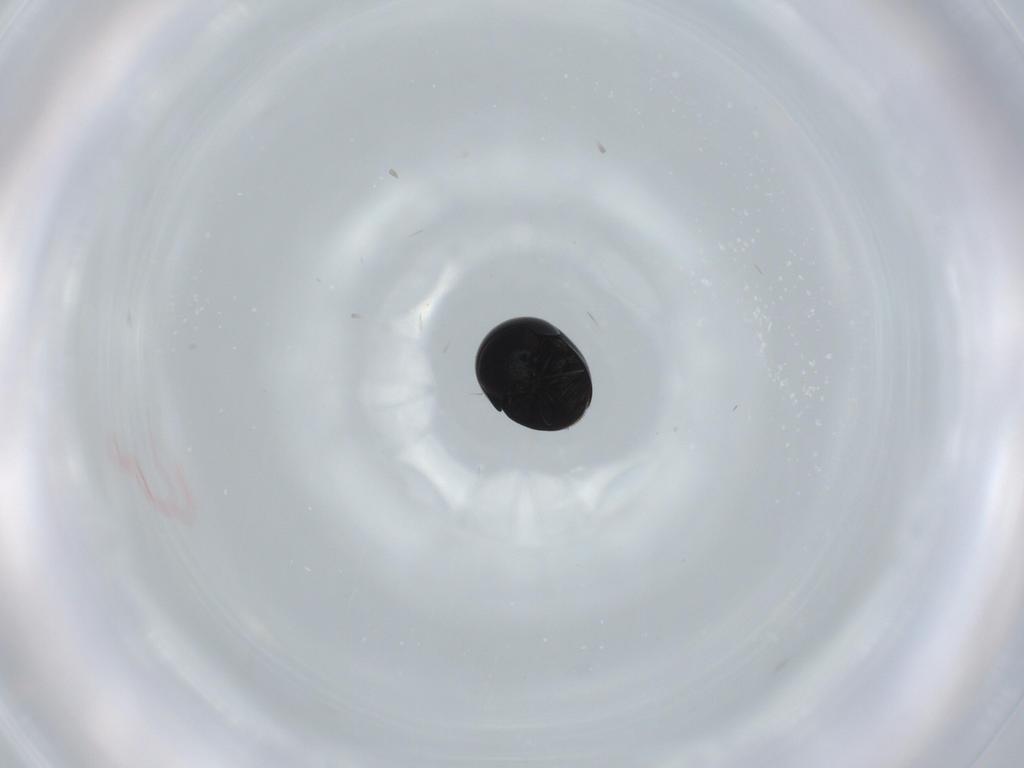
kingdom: Animalia
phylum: Arthropoda
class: Insecta
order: Coleoptera
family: Cybocephalidae
